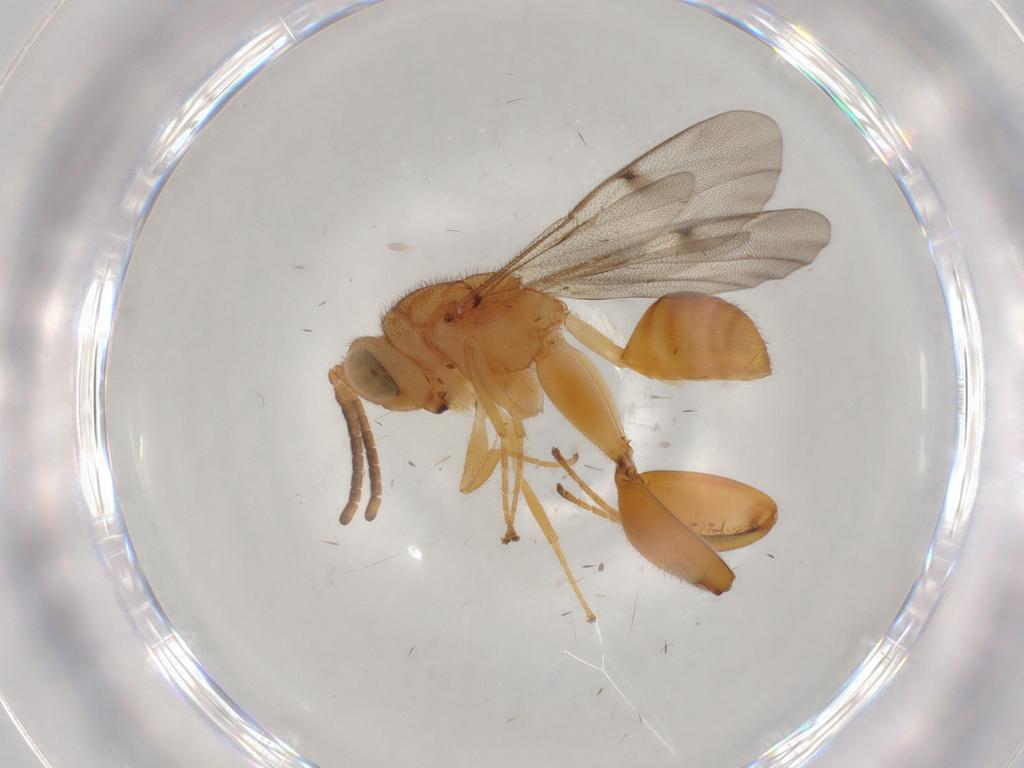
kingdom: Animalia
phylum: Arthropoda
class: Insecta
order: Hymenoptera
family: Chalcididae
